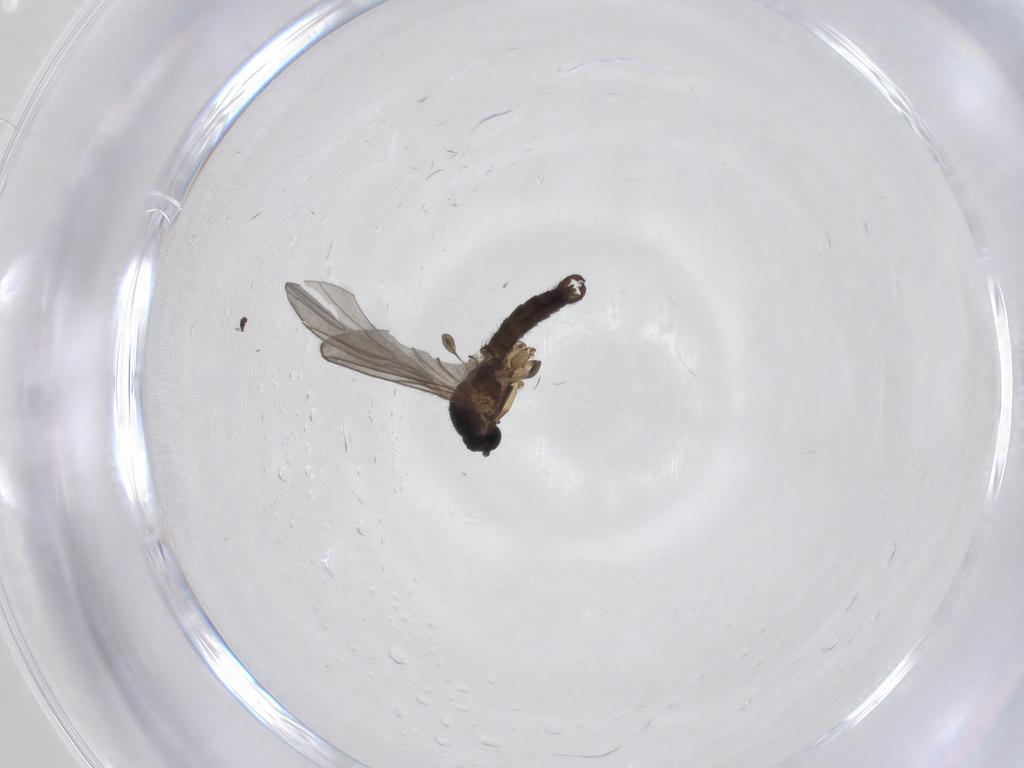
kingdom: Animalia
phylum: Arthropoda
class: Insecta
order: Diptera
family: Sciaridae
